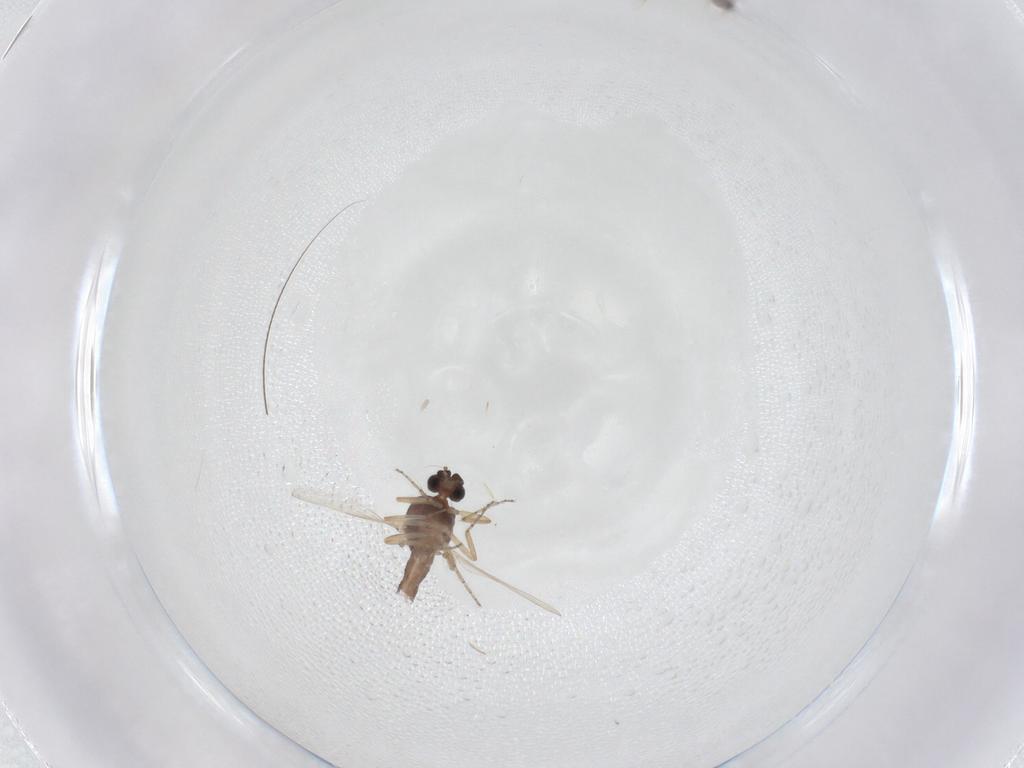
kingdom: Animalia
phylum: Arthropoda
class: Insecta
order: Diptera
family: Ceratopogonidae
